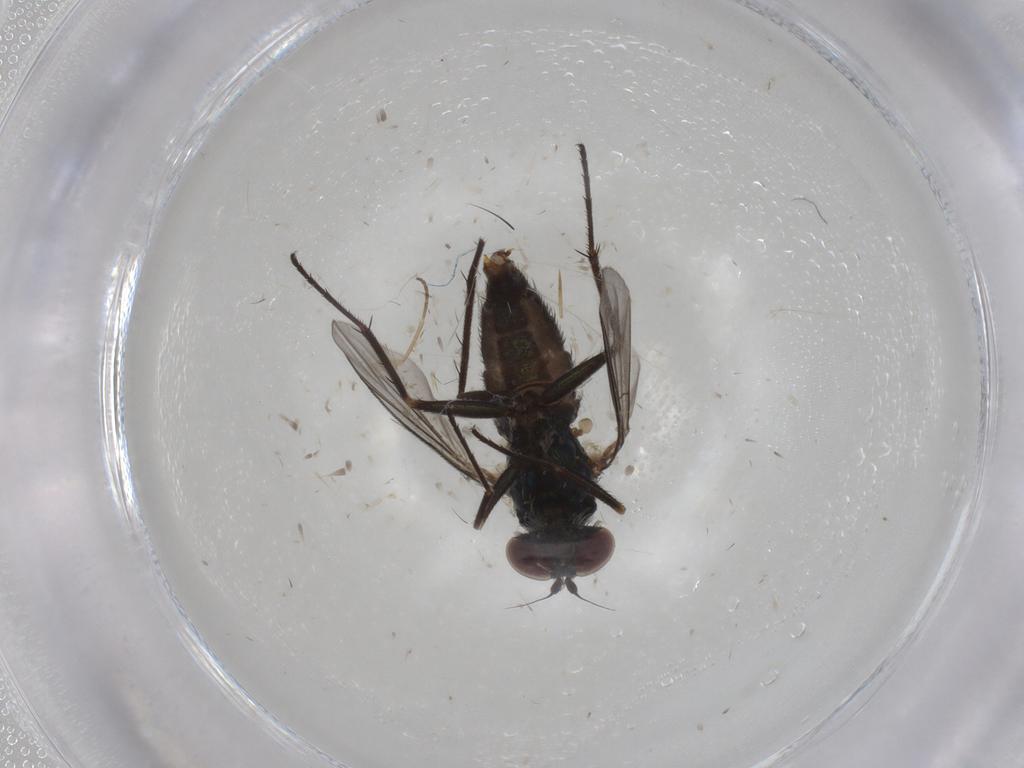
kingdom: Animalia
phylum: Arthropoda
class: Insecta
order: Diptera
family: Dolichopodidae
